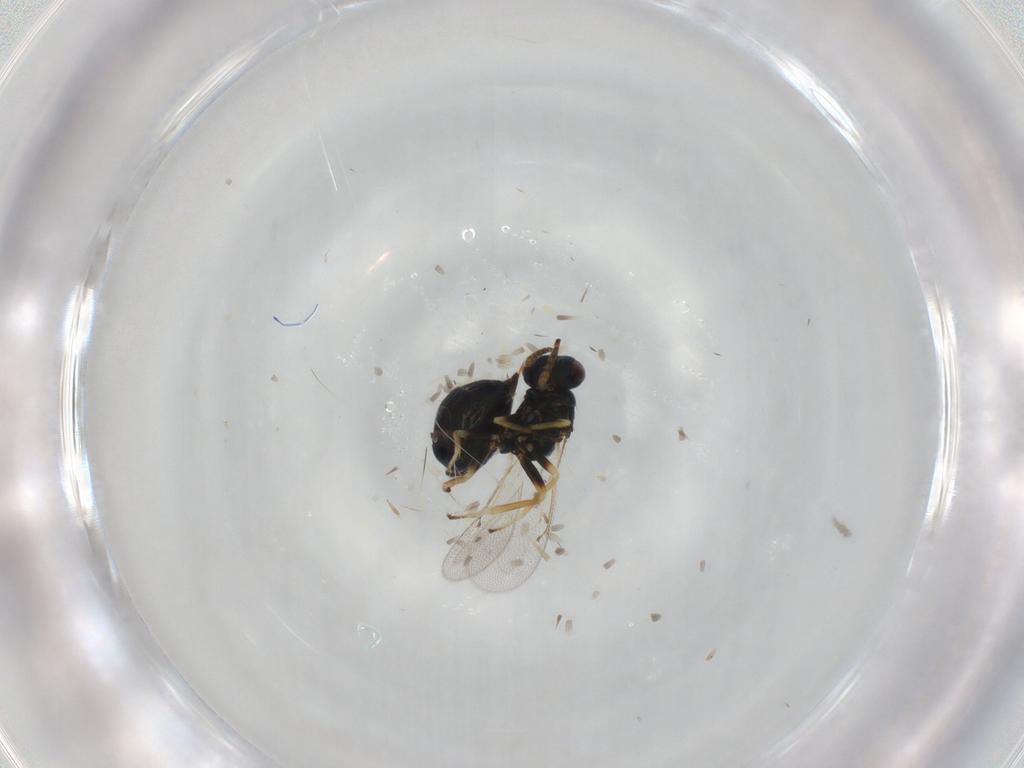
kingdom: Animalia
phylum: Arthropoda
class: Insecta
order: Hymenoptera
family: Eulophidae
